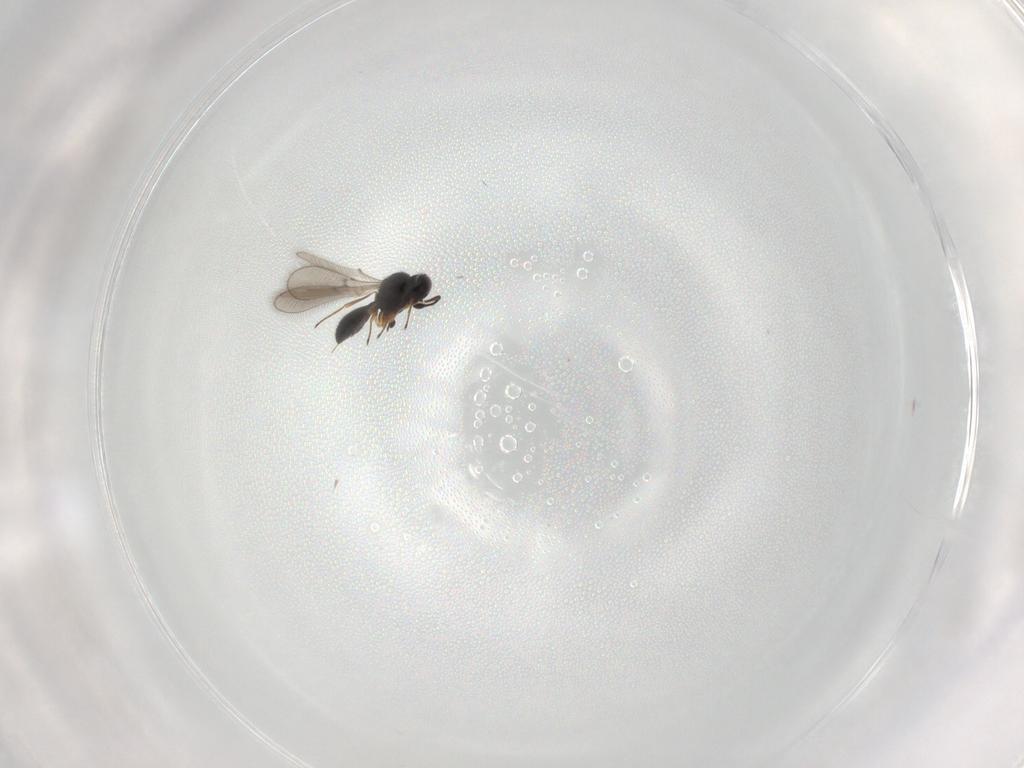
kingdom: Animalia
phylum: Arthropoda
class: Insecta
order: Hymenoptera
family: Scelionidae
